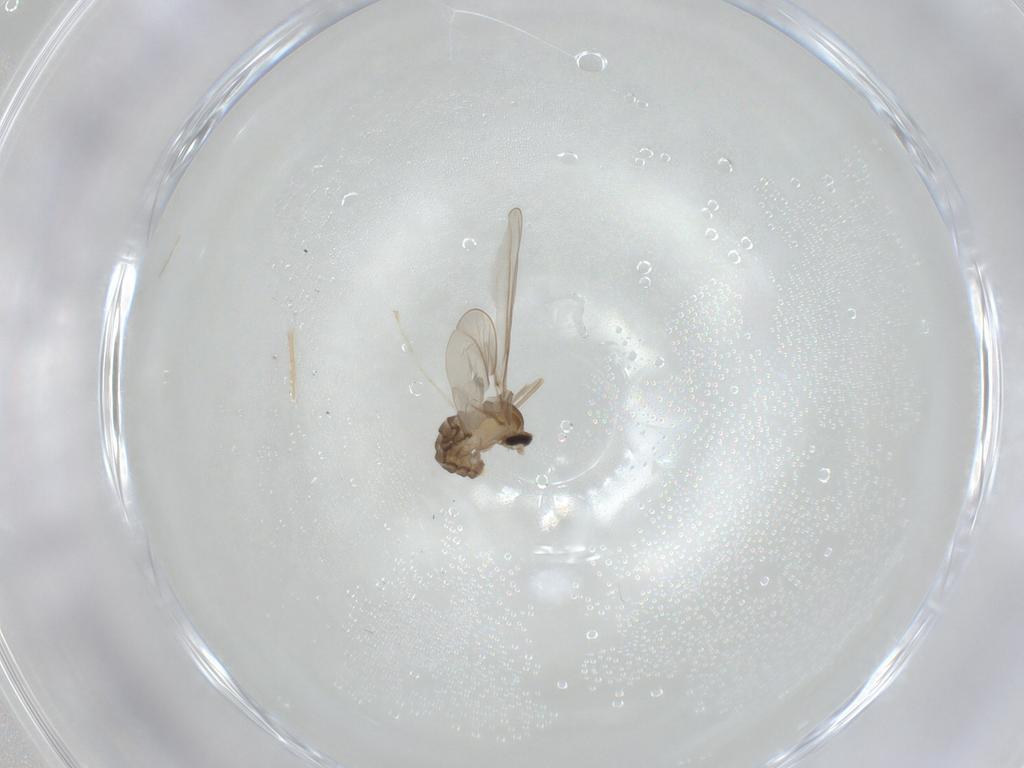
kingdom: Animalia
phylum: Arthropoda
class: Insecta
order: Diptera
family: Cecidomyiidae
